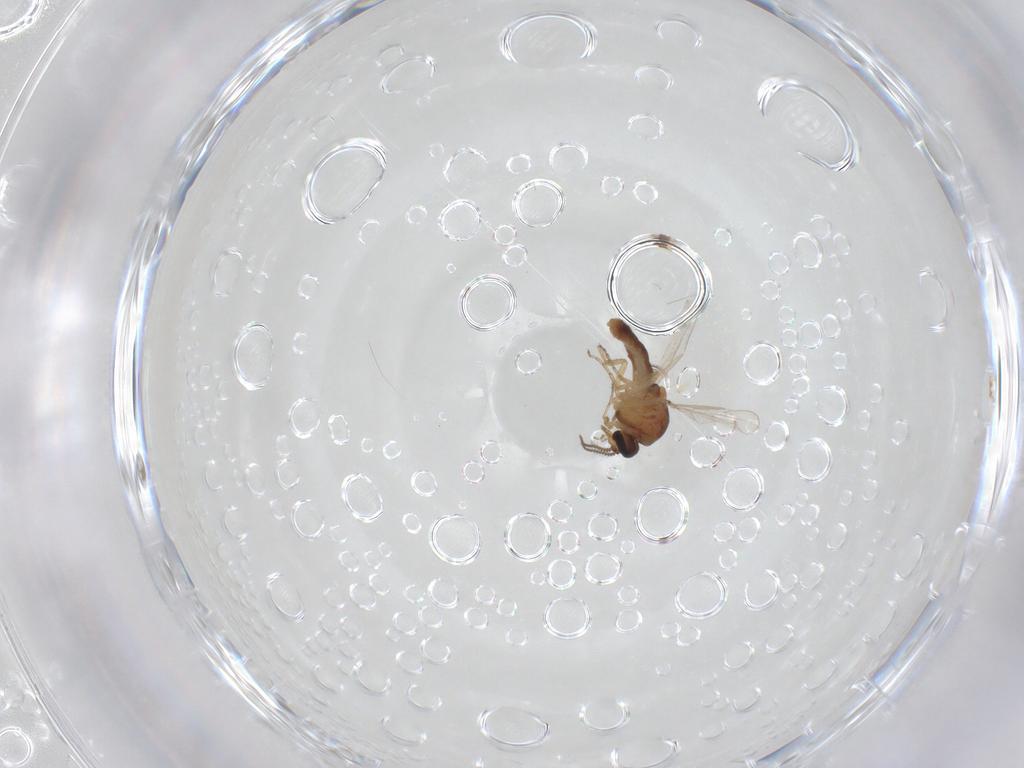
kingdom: Animalia
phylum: Arthropoda
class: Insecta
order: Diptera
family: Ceratopogonidae
